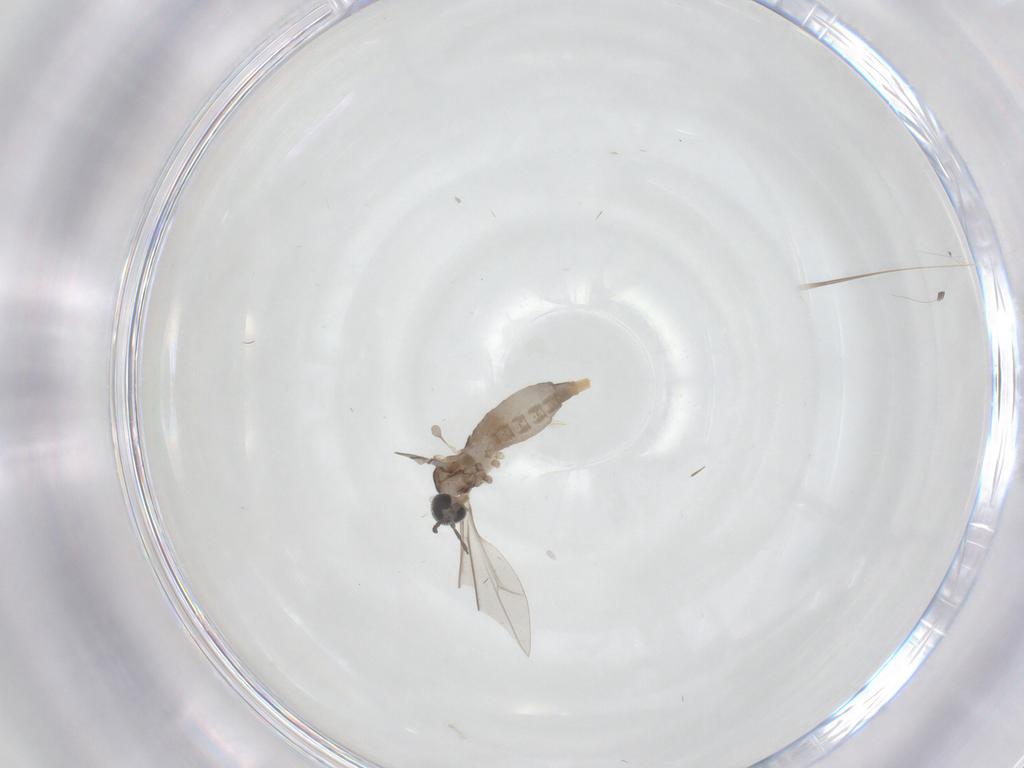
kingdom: Animalia
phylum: Arthropoda
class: Insecta
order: Diptera
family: Cecidomyiidae
